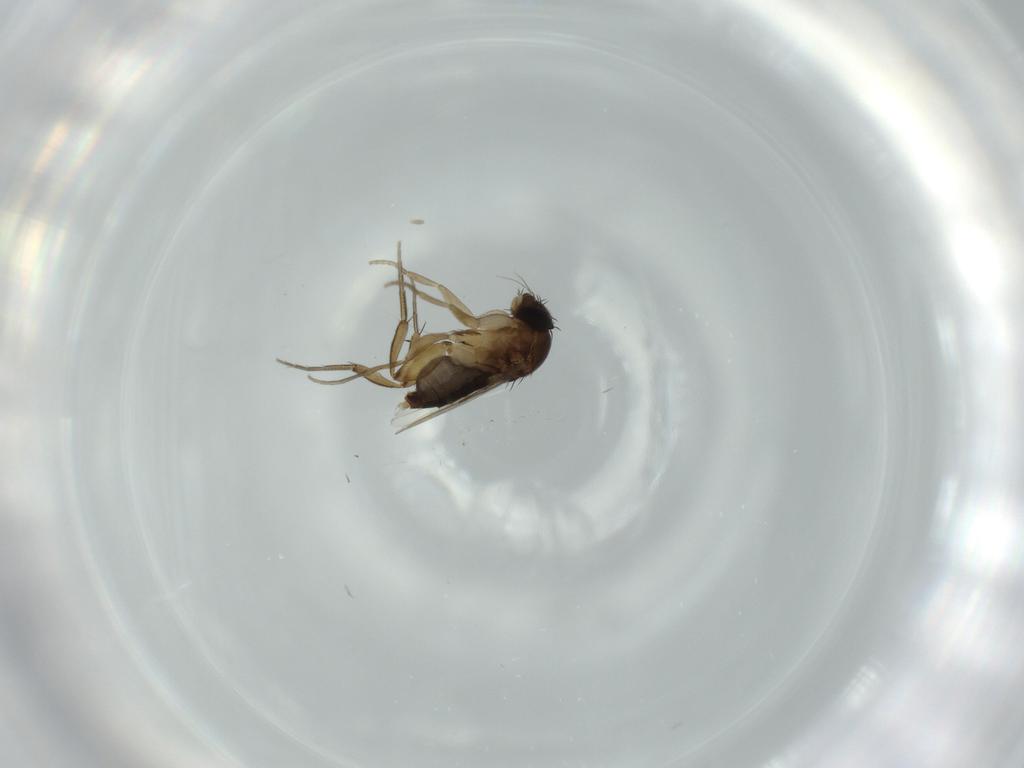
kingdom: Animalia
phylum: Arthropoda
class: Insecta
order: Diptera
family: Phoridae
